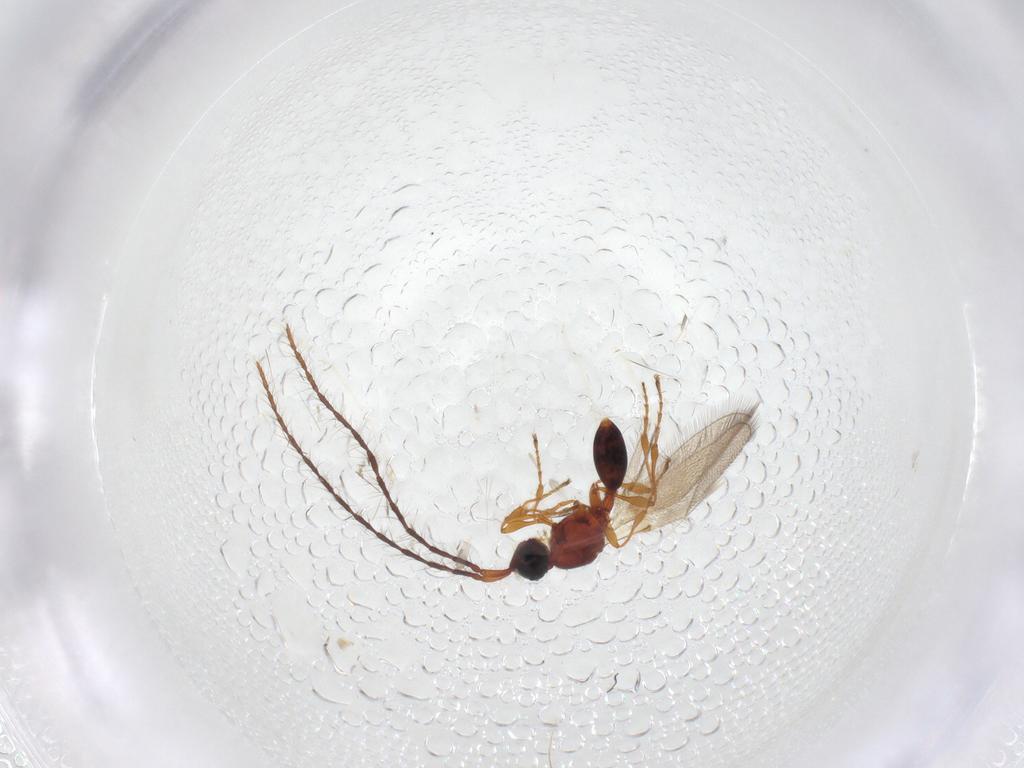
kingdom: Animalia
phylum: Arthropoda
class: Insecta
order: Hymenoptera
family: Diapriidae
